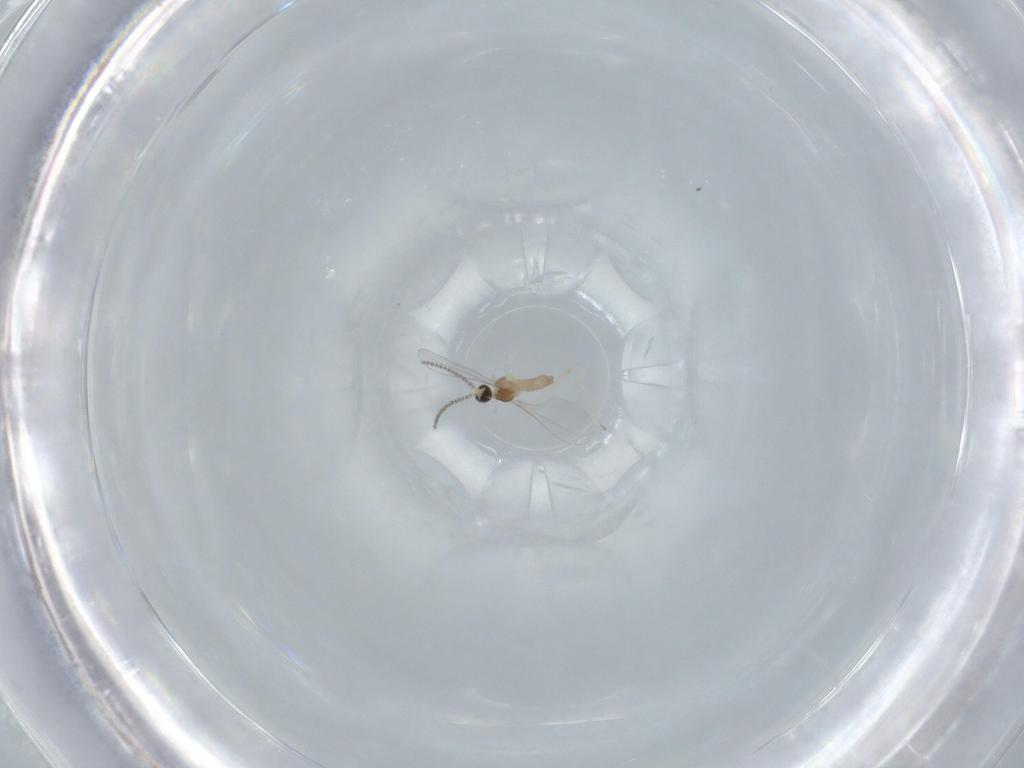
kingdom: Animalia
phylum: Arthropoda
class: Insecta
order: Diptera
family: Cecidomyiidae
